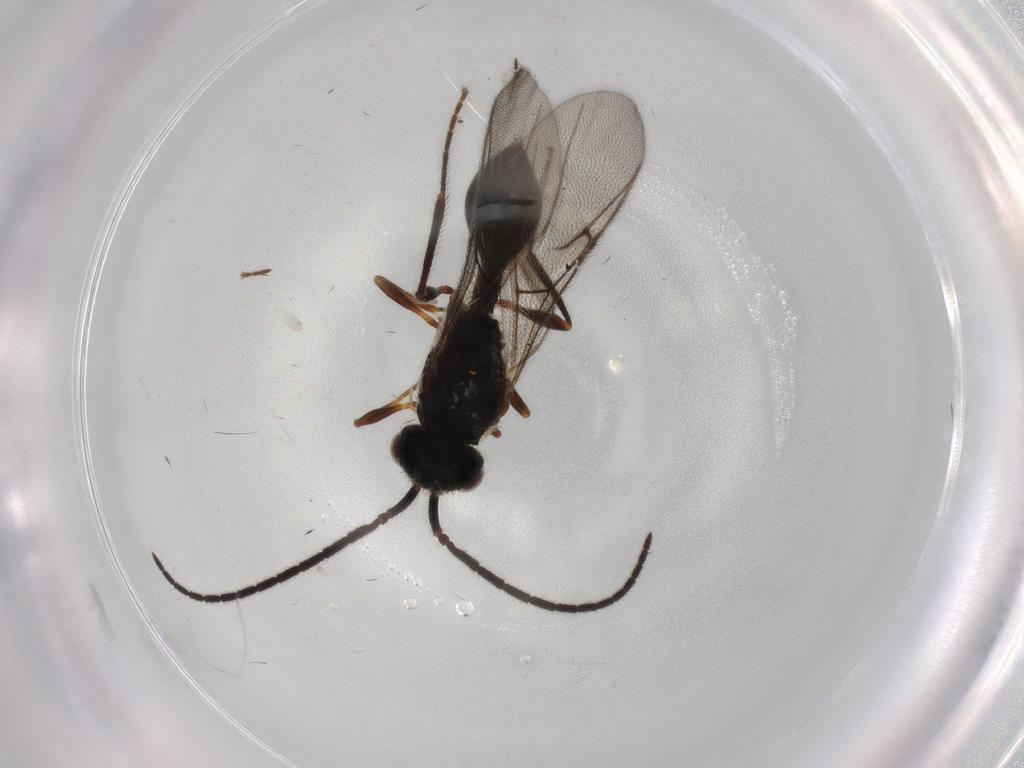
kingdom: Animalia
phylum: Arthropoda
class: Insecta
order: Hymenoptera
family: Diapriidae
